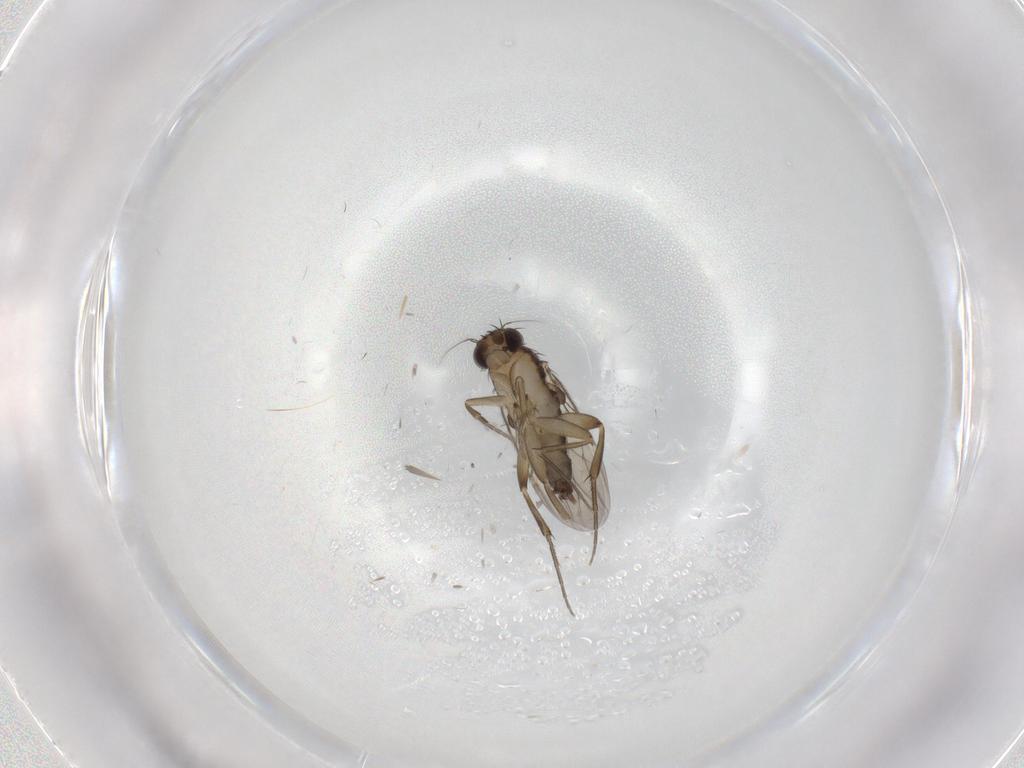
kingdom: Animalia
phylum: Arthropoda
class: Insecta
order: Diptera
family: Phoridae
